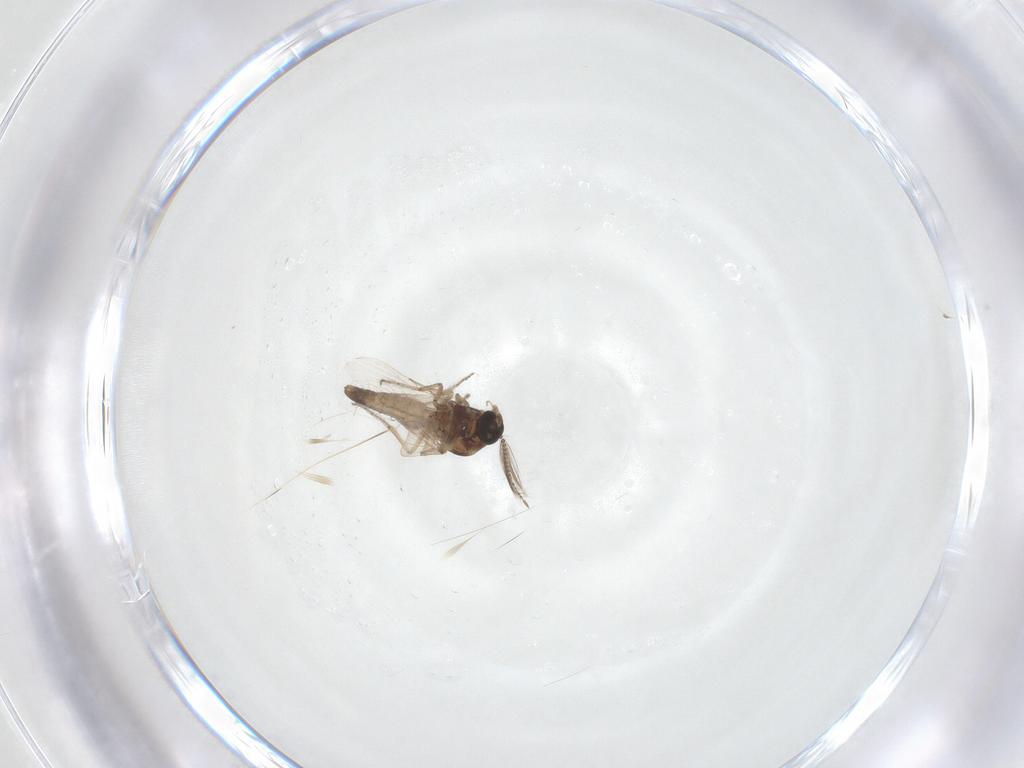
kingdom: Animalia
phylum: Arthropoda
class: Insecta
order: Diptera
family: Ceratopogonidae
